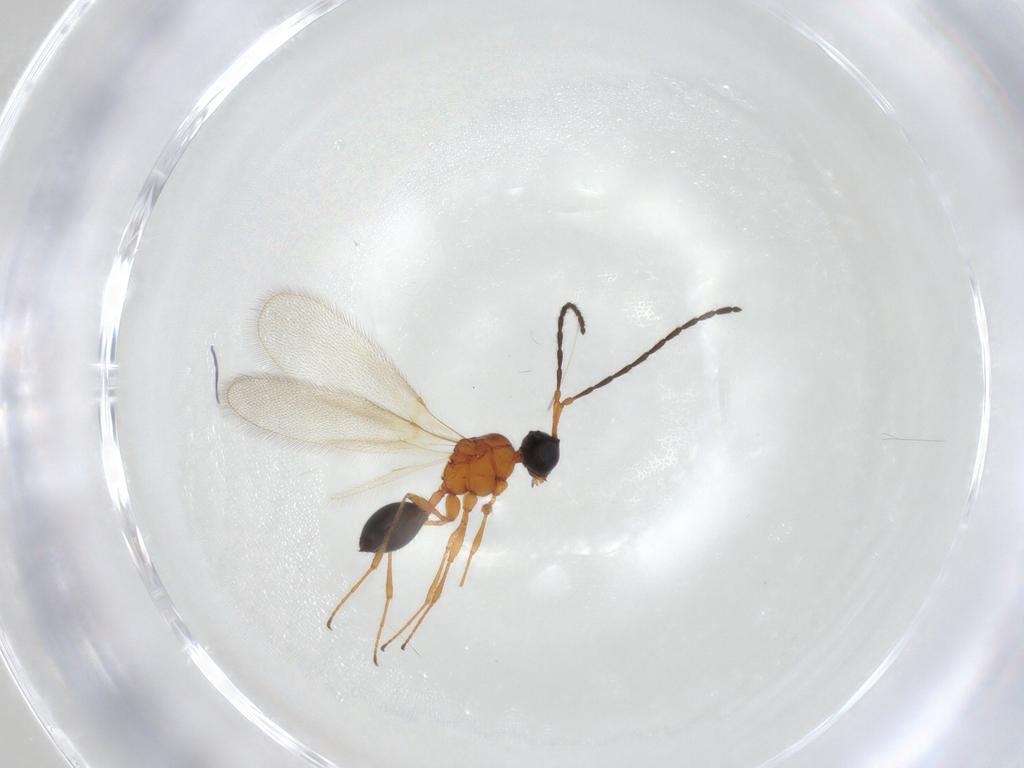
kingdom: Animalia
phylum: Arthropoda
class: Insecta
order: Hymenoptera
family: Diapriidae
